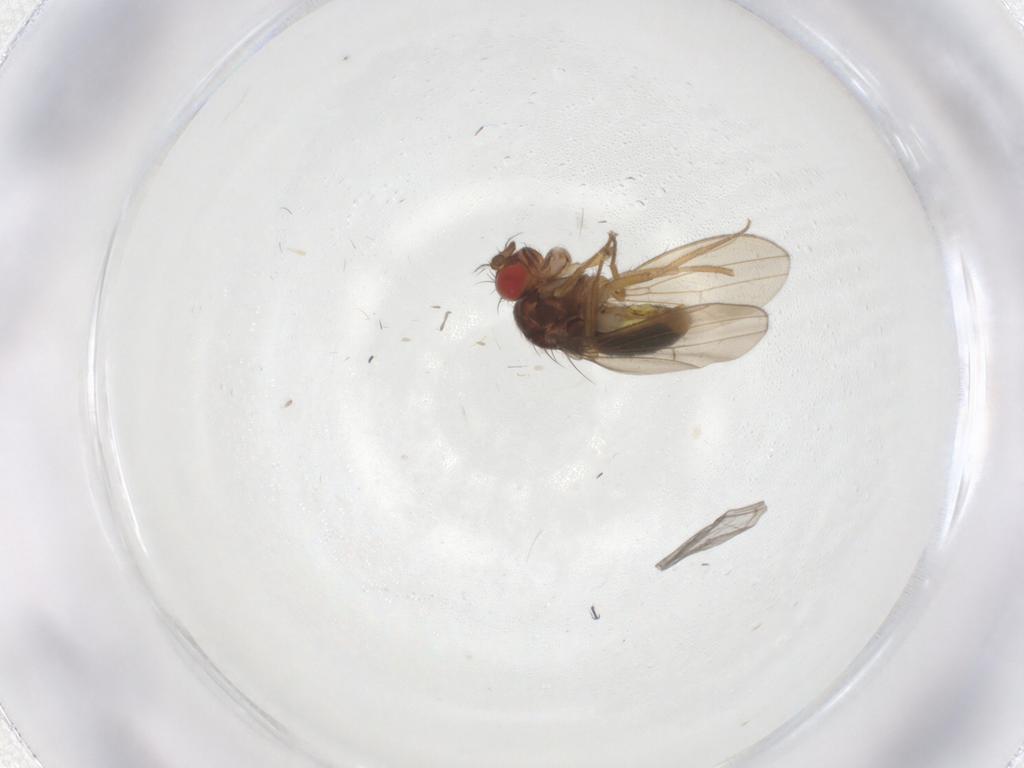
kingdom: Animalia
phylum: Arthropoda
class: Insecta
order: Diptera
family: Drosophilidae
